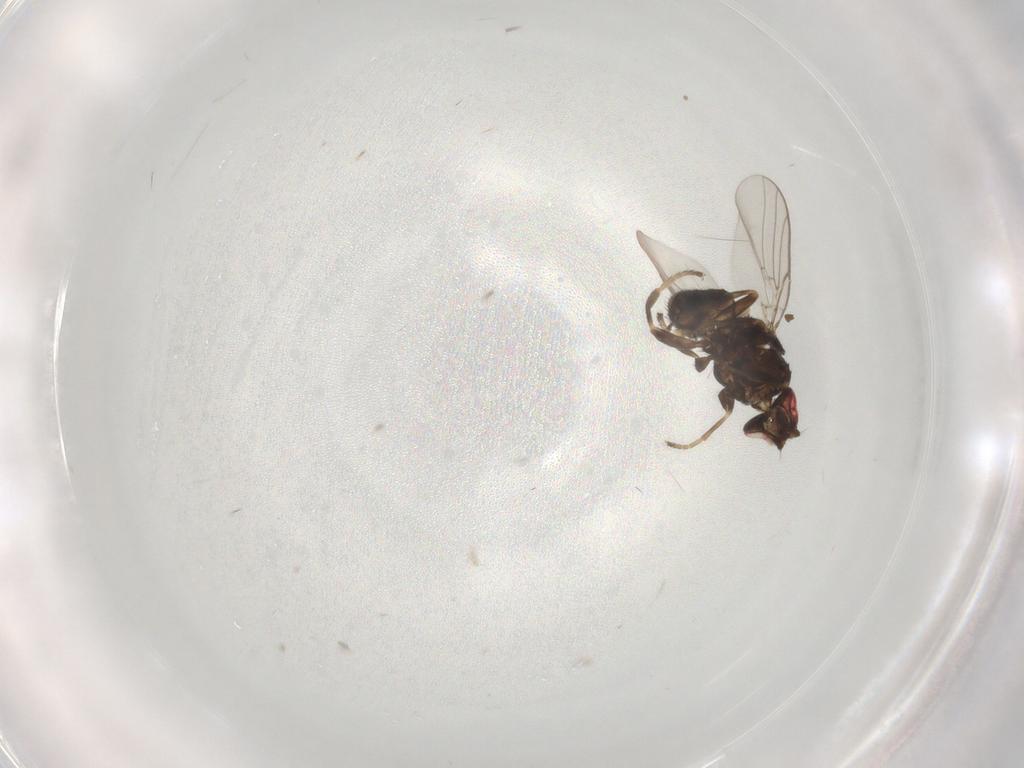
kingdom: Animalia
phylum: Arthropoda
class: Insecta
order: Diptera
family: Chloropidae
